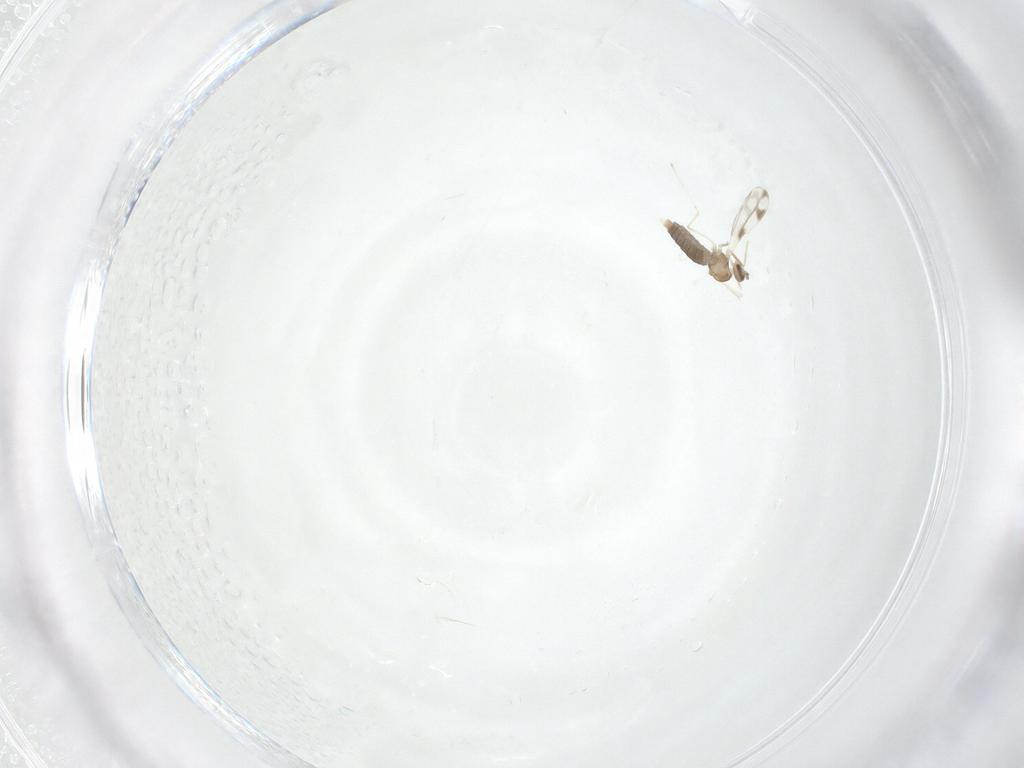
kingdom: Animalia
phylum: Arthropoda
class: Insecta
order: Diptera
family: Cecidomyiidae
